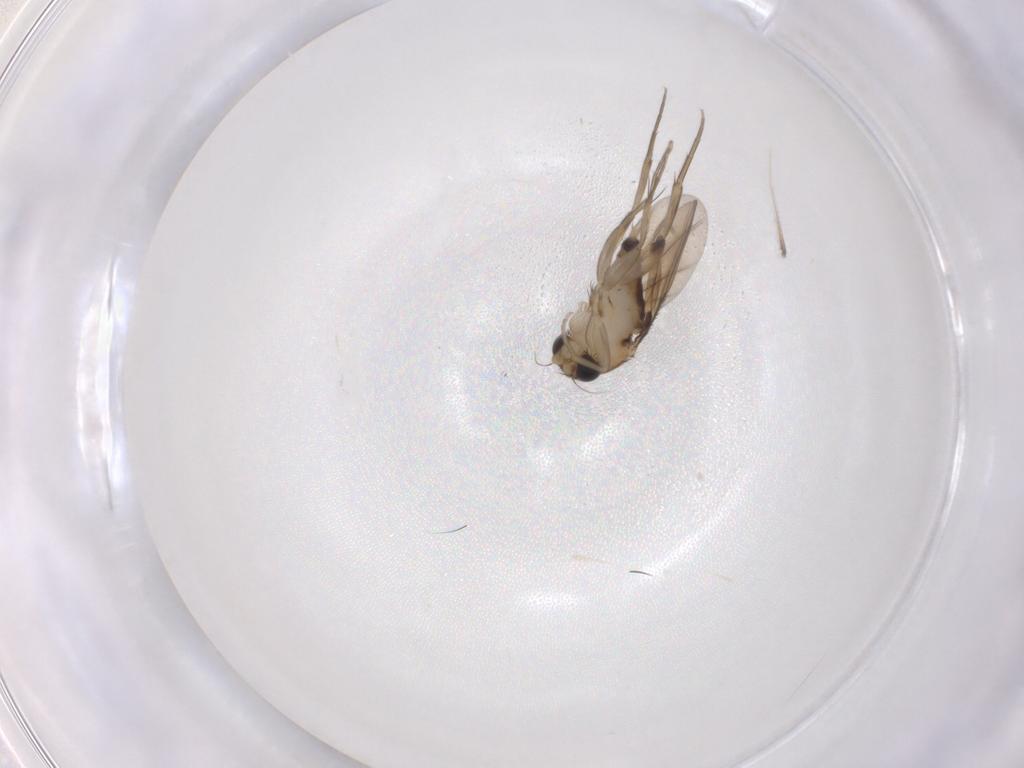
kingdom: Animalia
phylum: Arthropoda
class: Insecta
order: Diptera
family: Phoridae
